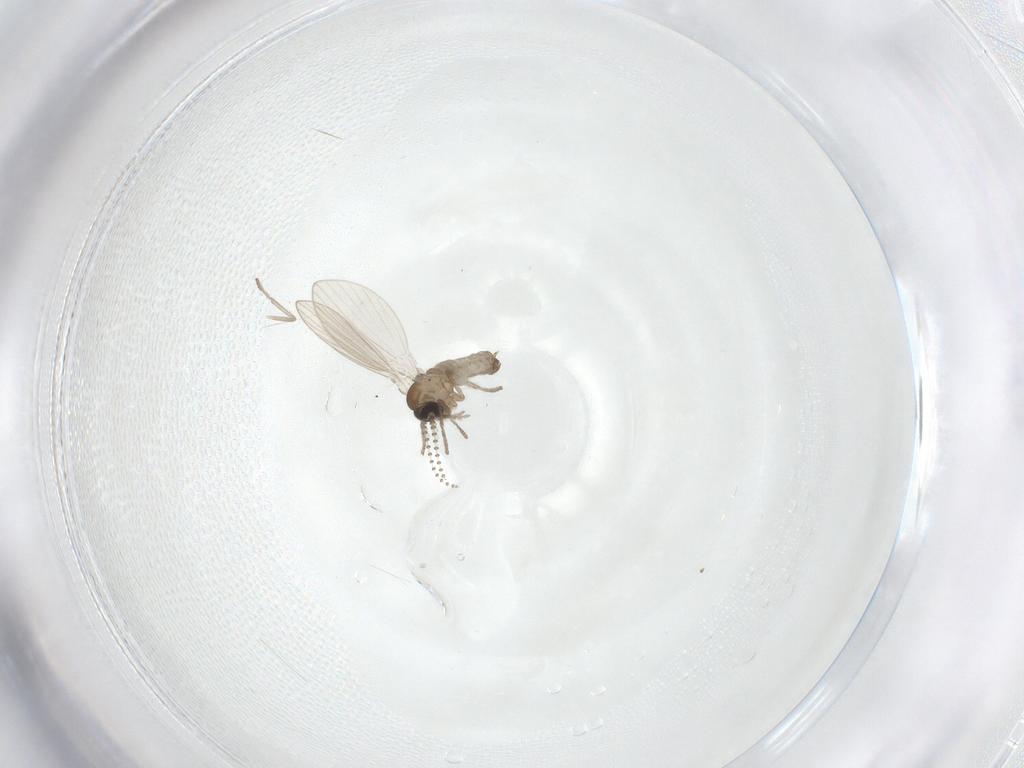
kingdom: Animalia
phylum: Arthropoda
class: Insecta
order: Diptera
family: Psychodidae
